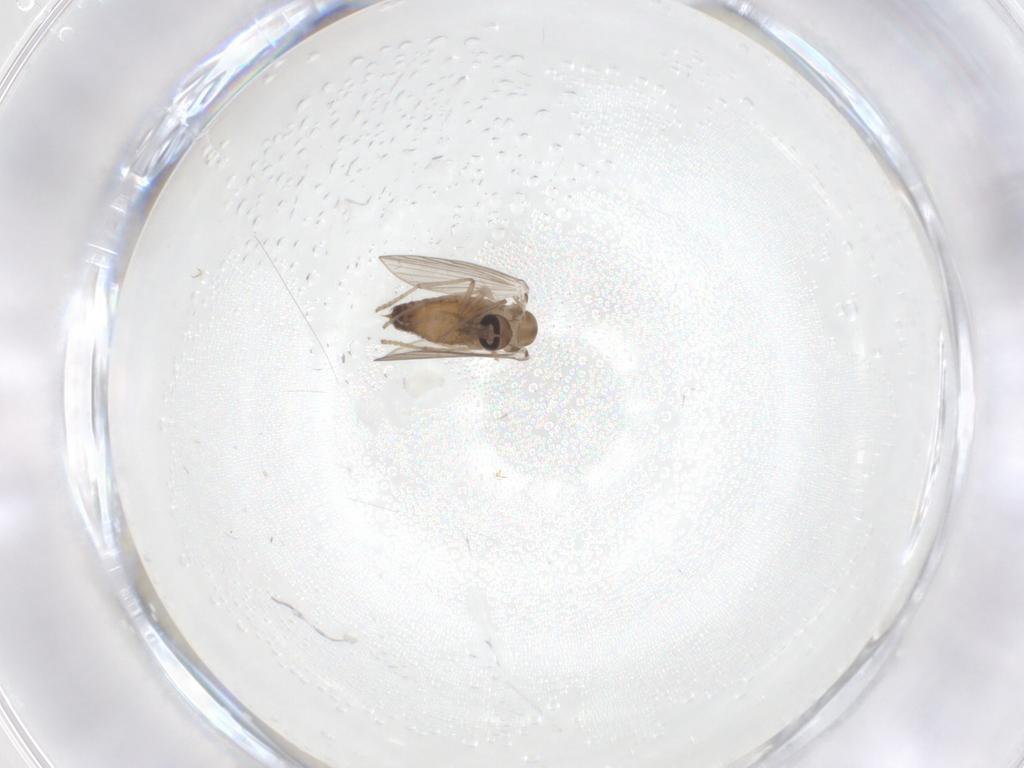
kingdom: Animalia
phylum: Arthropoda
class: Insecta
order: Diptera
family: Psychodidae
